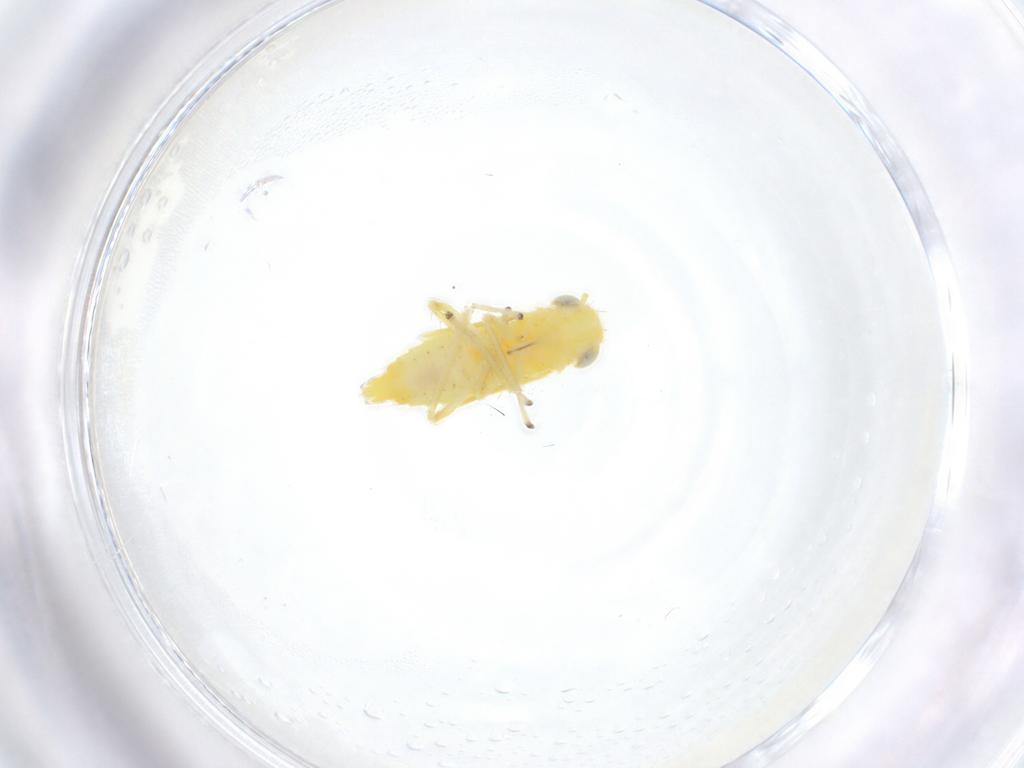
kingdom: Animalia
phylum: Arthropoda
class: Insecta
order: Hemiptera
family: Cicadellidae
